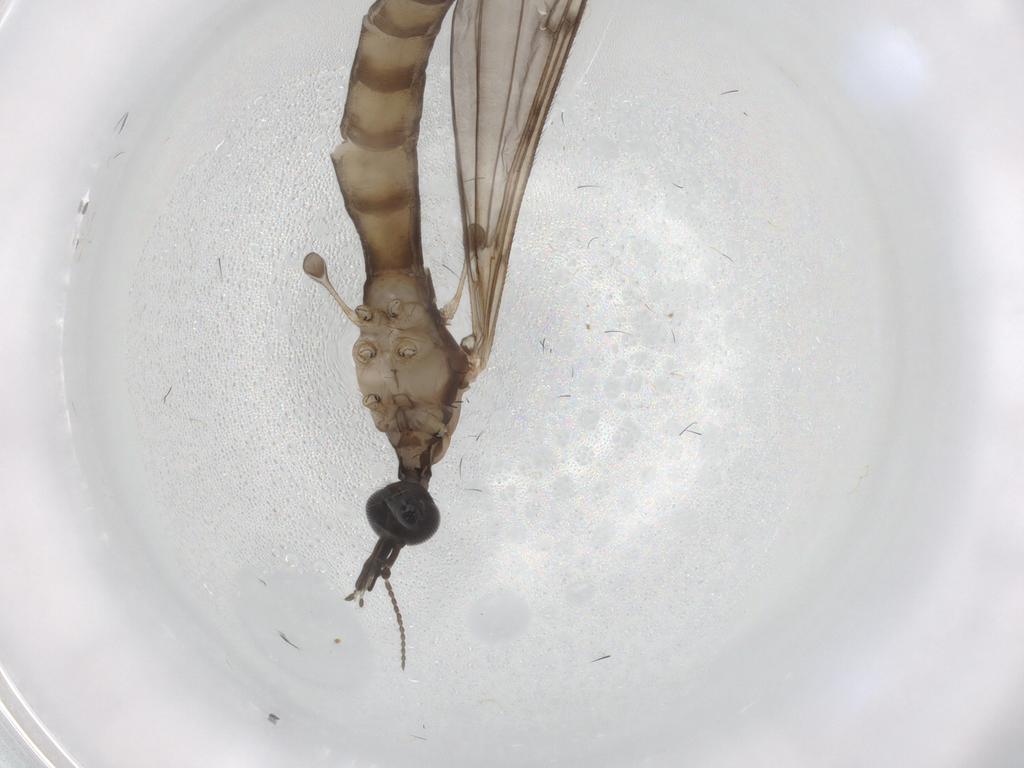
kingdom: Animalia
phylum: Arthropoda
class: Insecta
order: Diptera
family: Limoniidae
